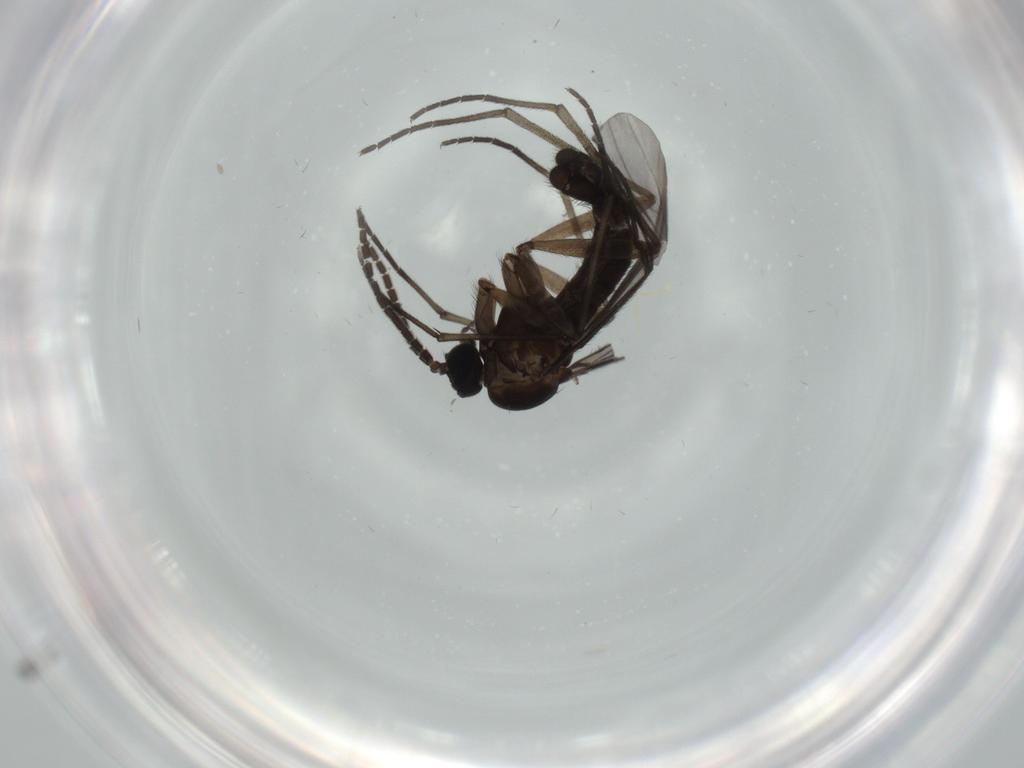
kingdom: Animalia
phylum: Arthropoda
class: Insecta
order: Diptera
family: Sciaridae
